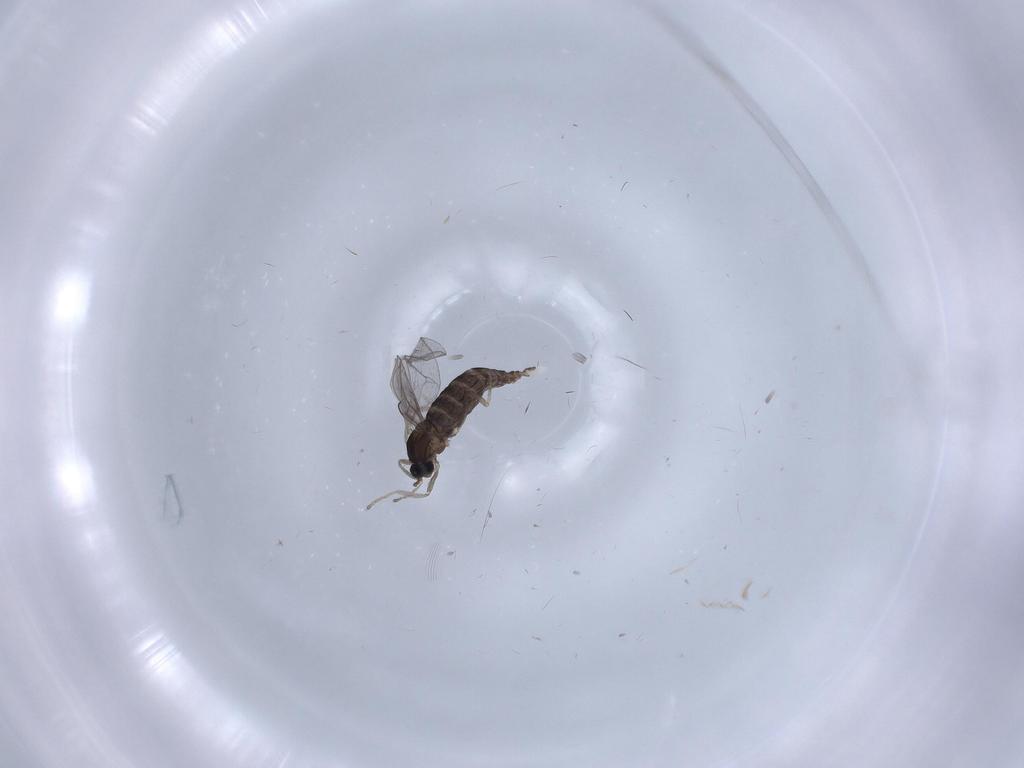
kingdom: Animalia
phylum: Arthropoda
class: Insecta
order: Diptera
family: Cecidomyiidae
